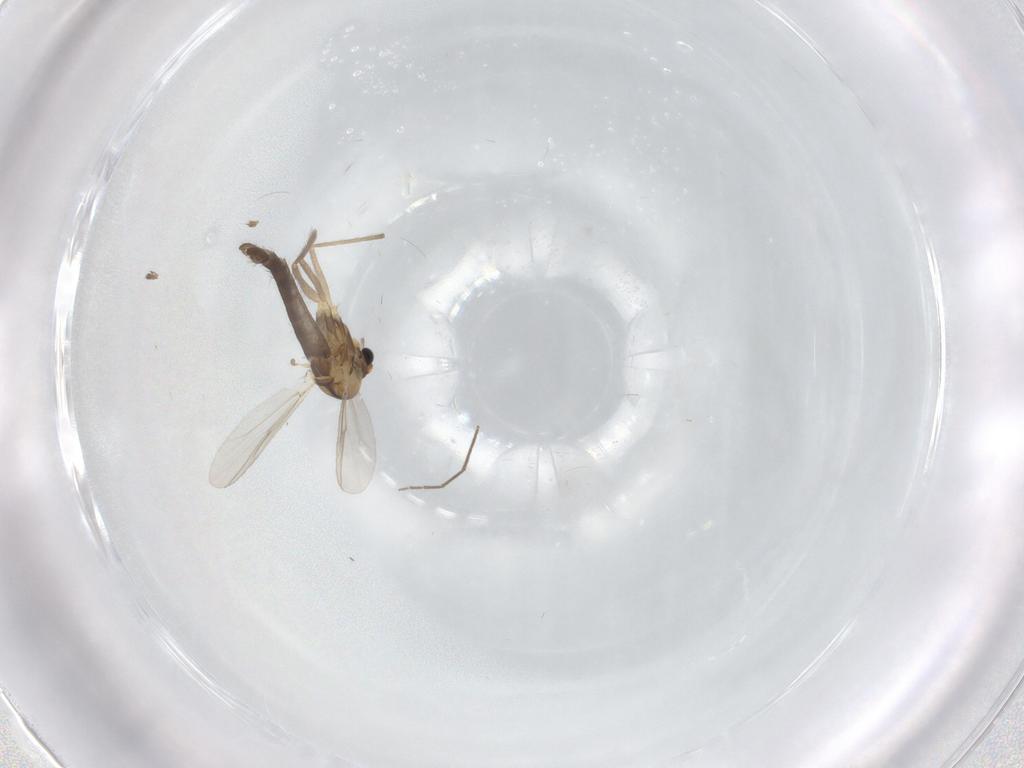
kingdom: Animalia
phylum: Arthropoda
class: Insecta
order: Diptera
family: Chironomidae
